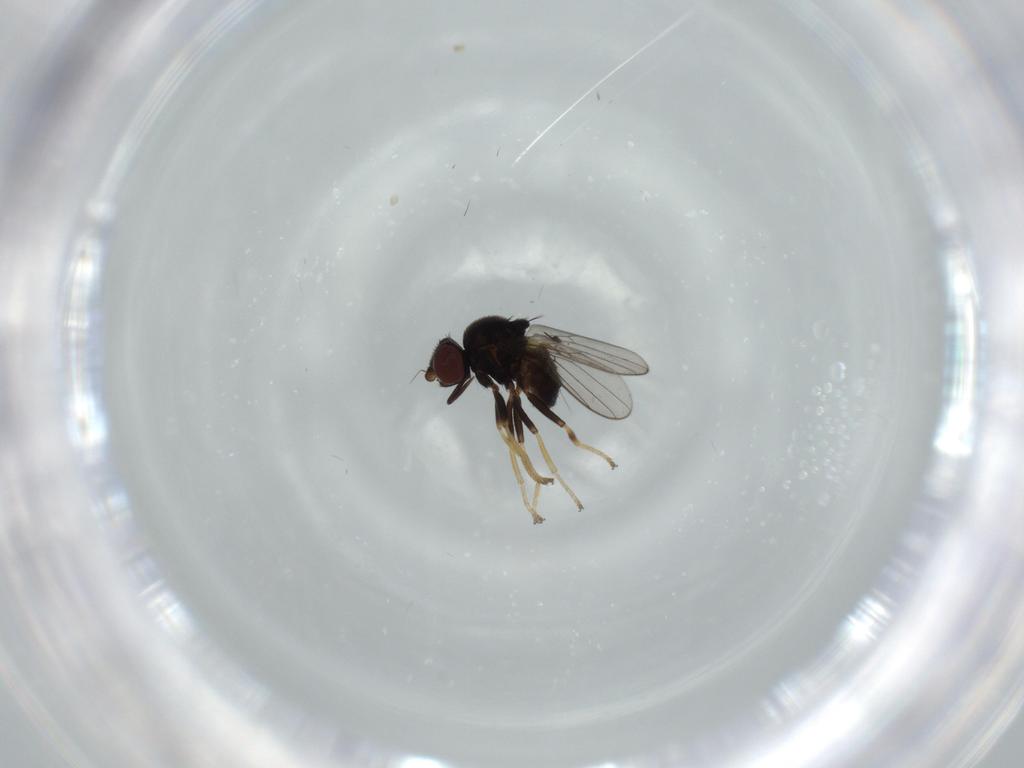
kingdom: Animalia
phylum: Arthropoda
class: Insecta
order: Diptera
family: Chloropidae
